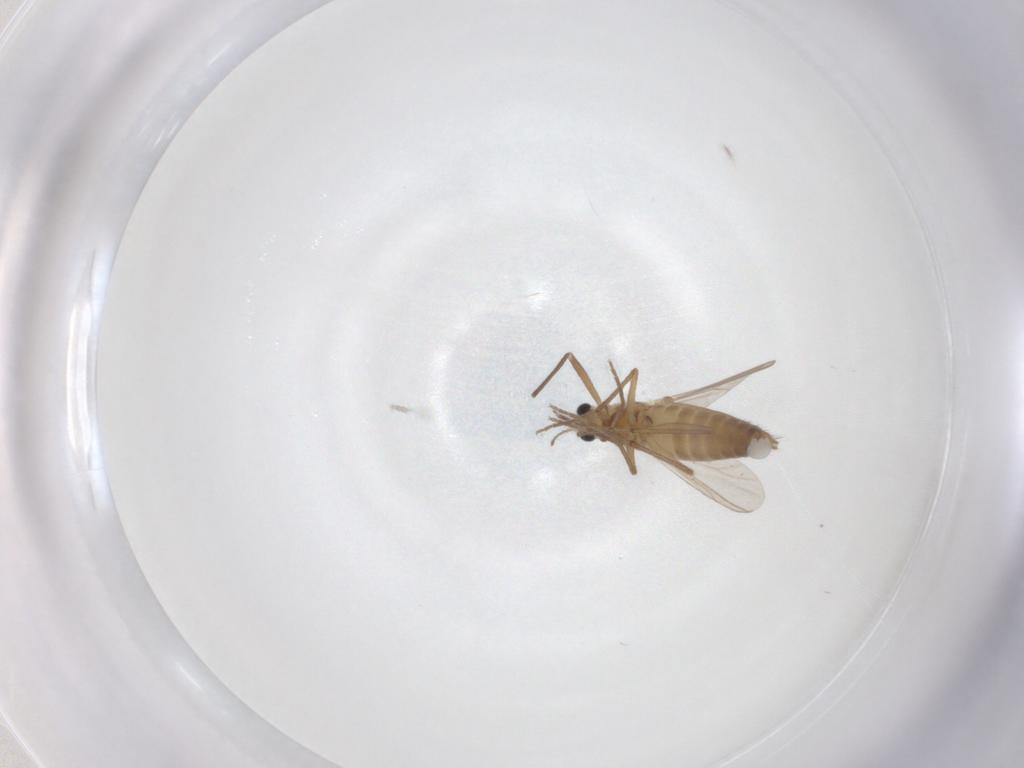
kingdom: Animalia
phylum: Arthropoda
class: Insecta
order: Diptera
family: Chironomidae
